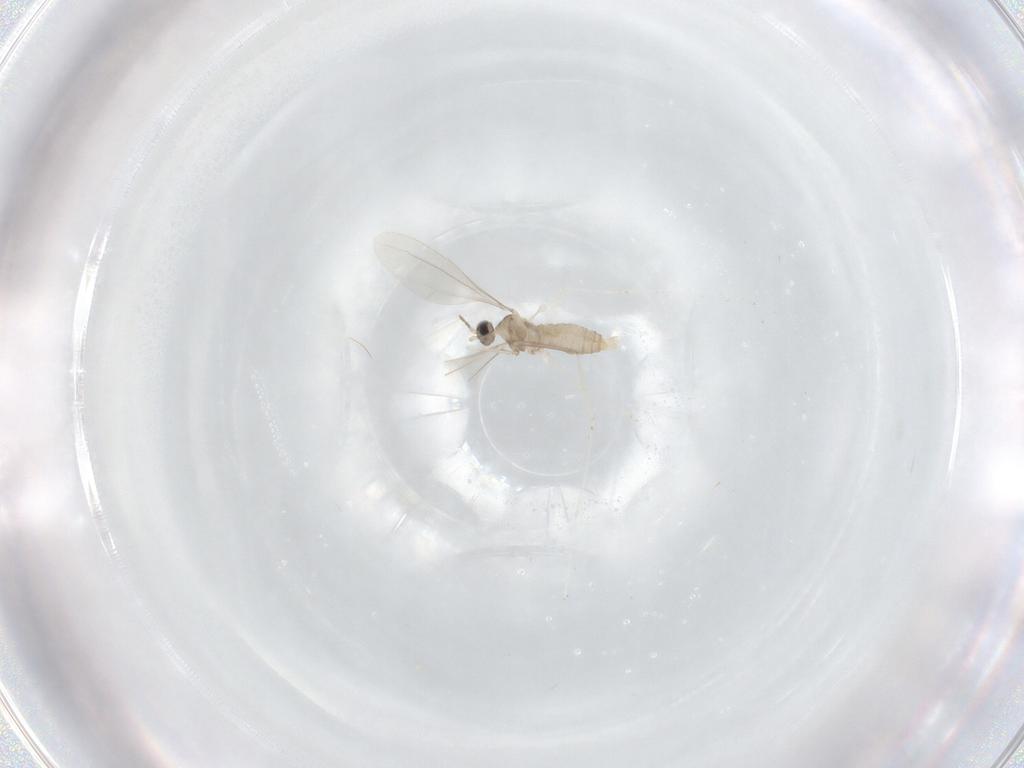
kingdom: Animalia
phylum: Arthropoda
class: Insecta
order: Diptera
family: Cecidomyiidae
